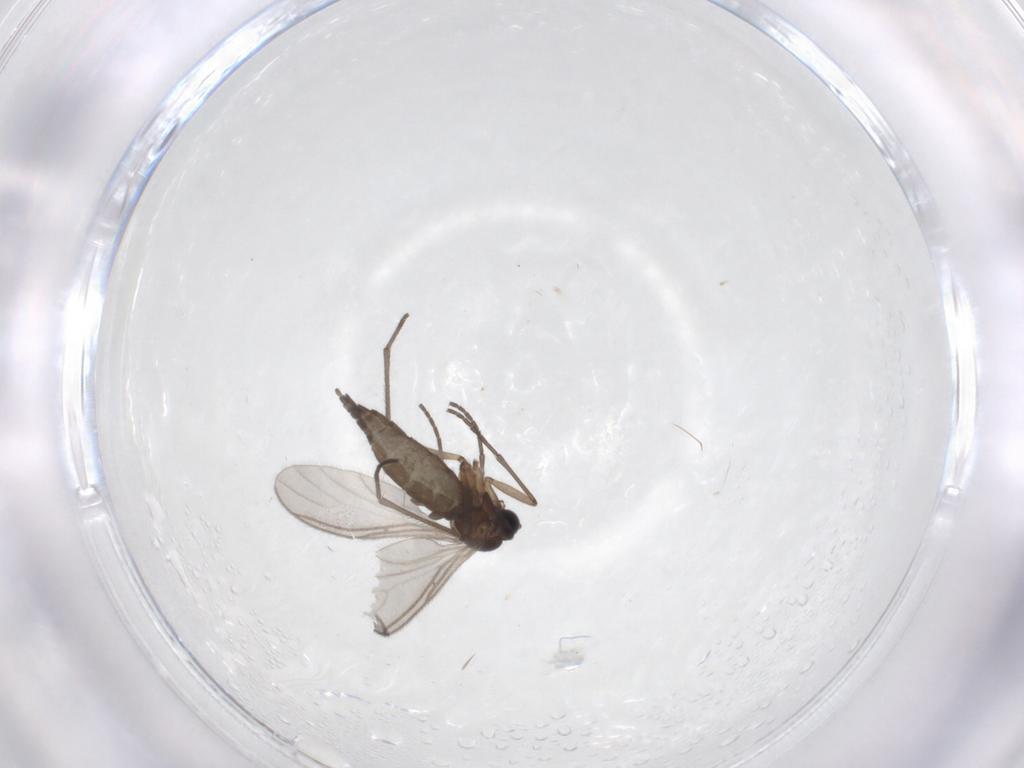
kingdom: Animalia
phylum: Arthropoda
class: Insecta
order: Diptera
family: Sciaridae
